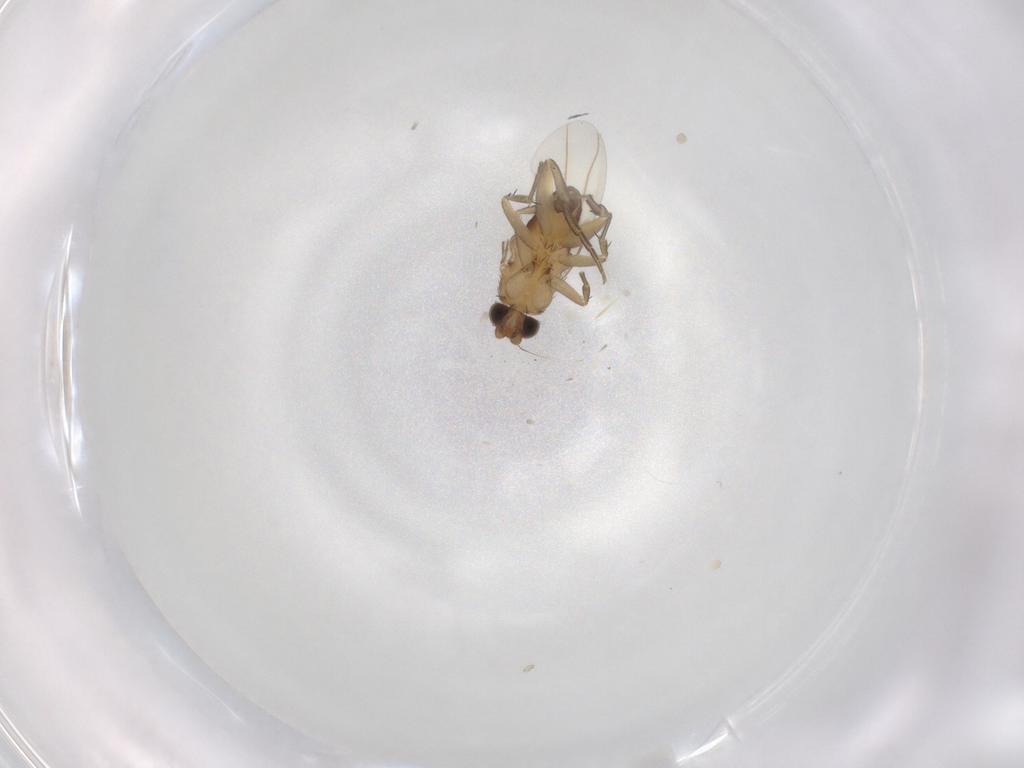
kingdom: Animalia
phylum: Arthropoda
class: Insecta
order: Diptera
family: Phoridae
